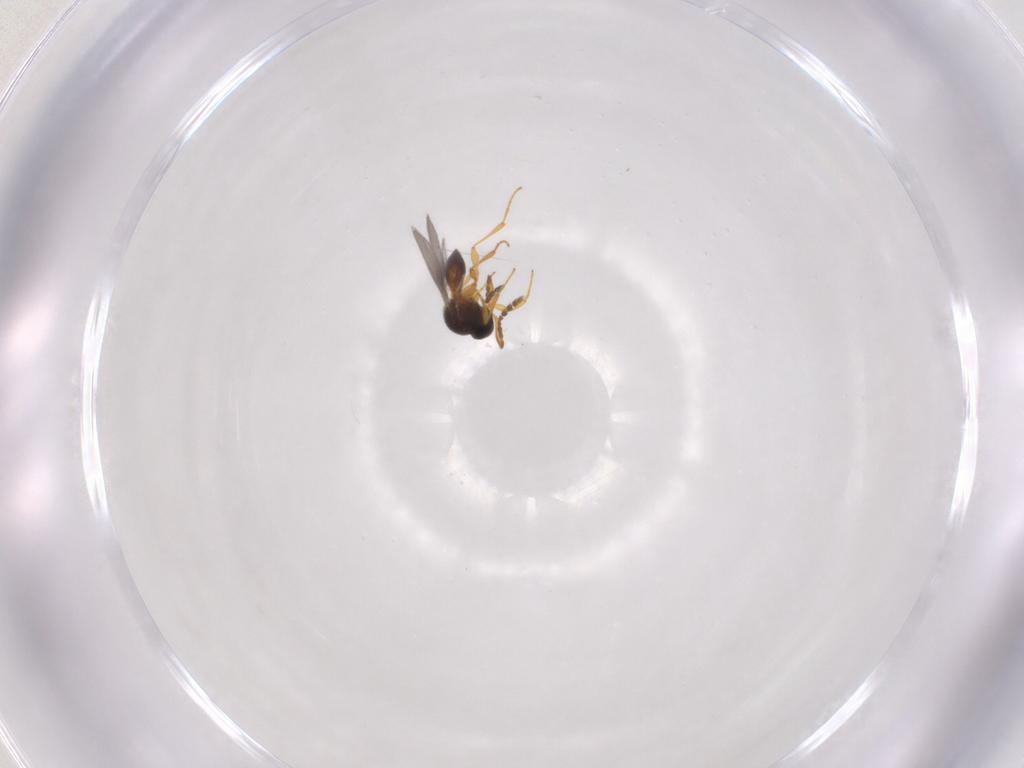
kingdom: Animalia
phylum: Arthropoda
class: Insecta
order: Hymenoptera
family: Platygastridae
